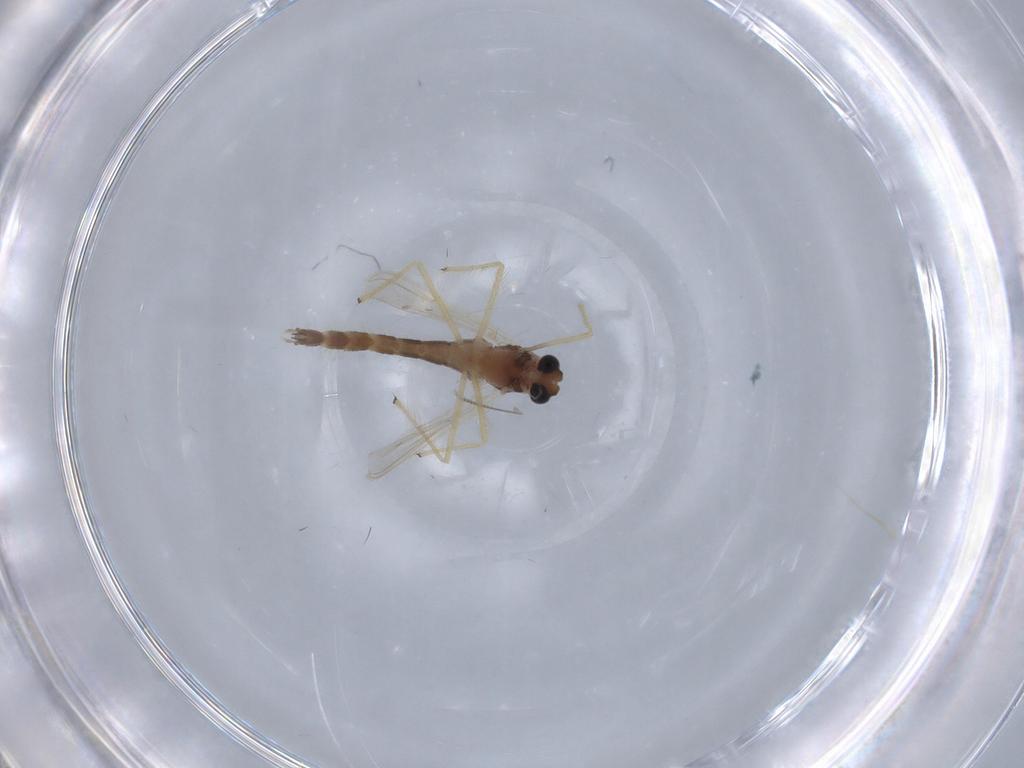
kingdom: Animalia
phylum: Arthropoda
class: Insecta
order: Diptera
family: Chironomidae
